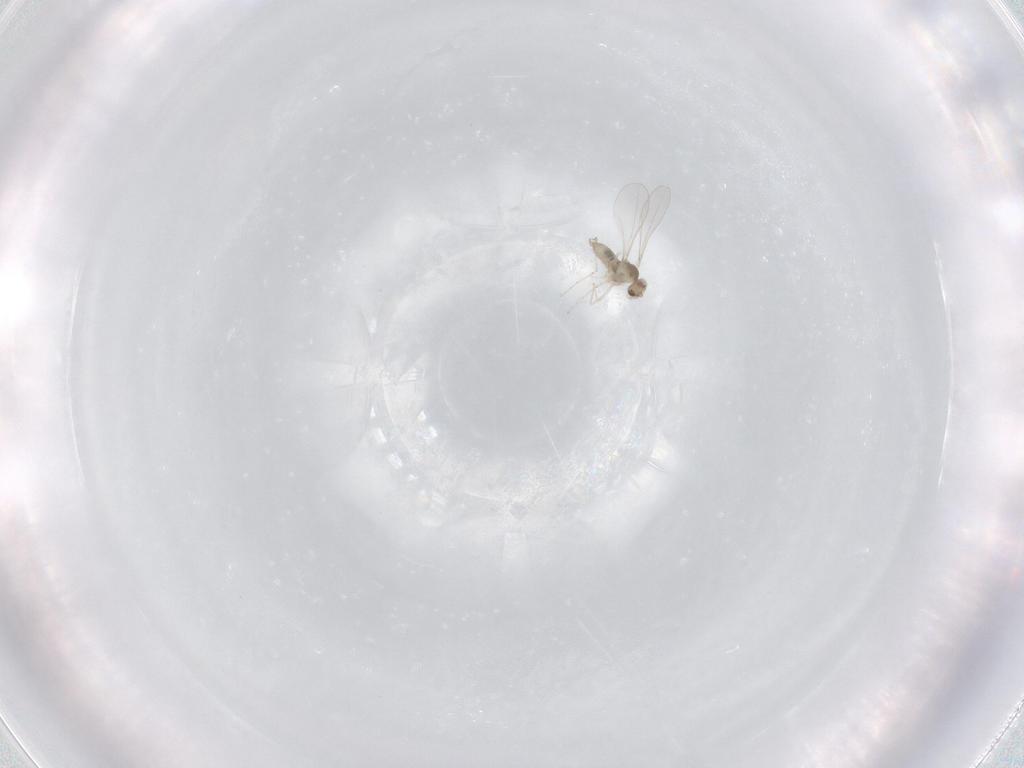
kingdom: Animalia
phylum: Arthropoda
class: Insecta
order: Diptera
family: Cecidomyiidae
